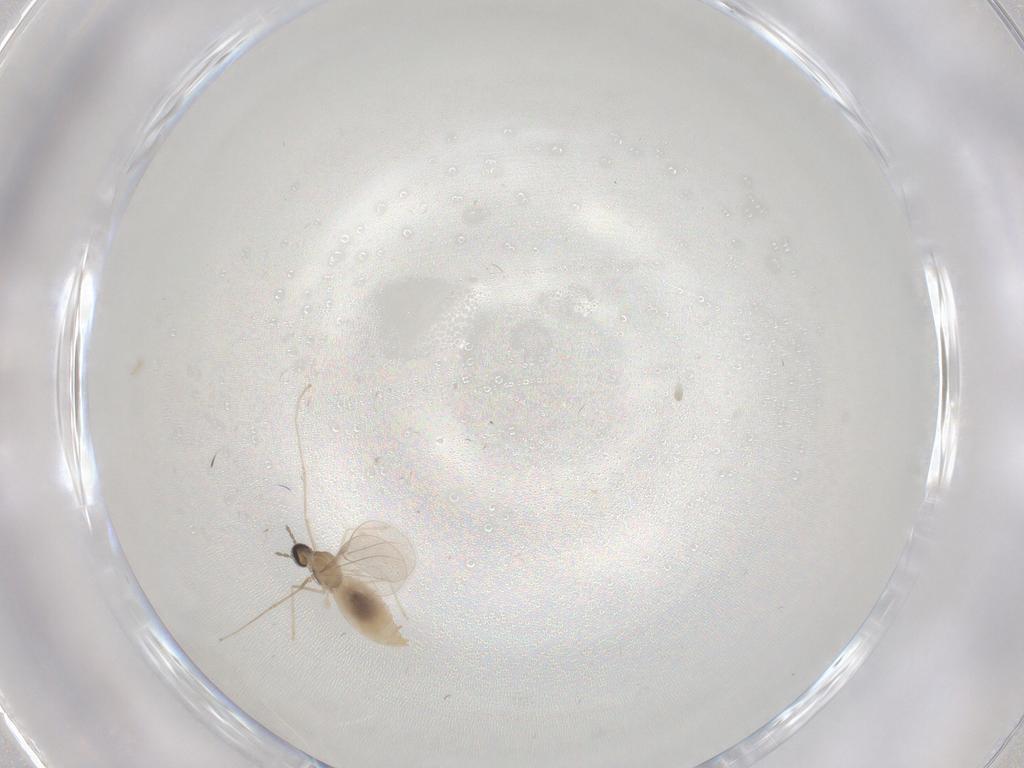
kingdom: Animalia
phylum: Arthropoda
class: Insecta
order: Diptera
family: Cecidomyiidae
